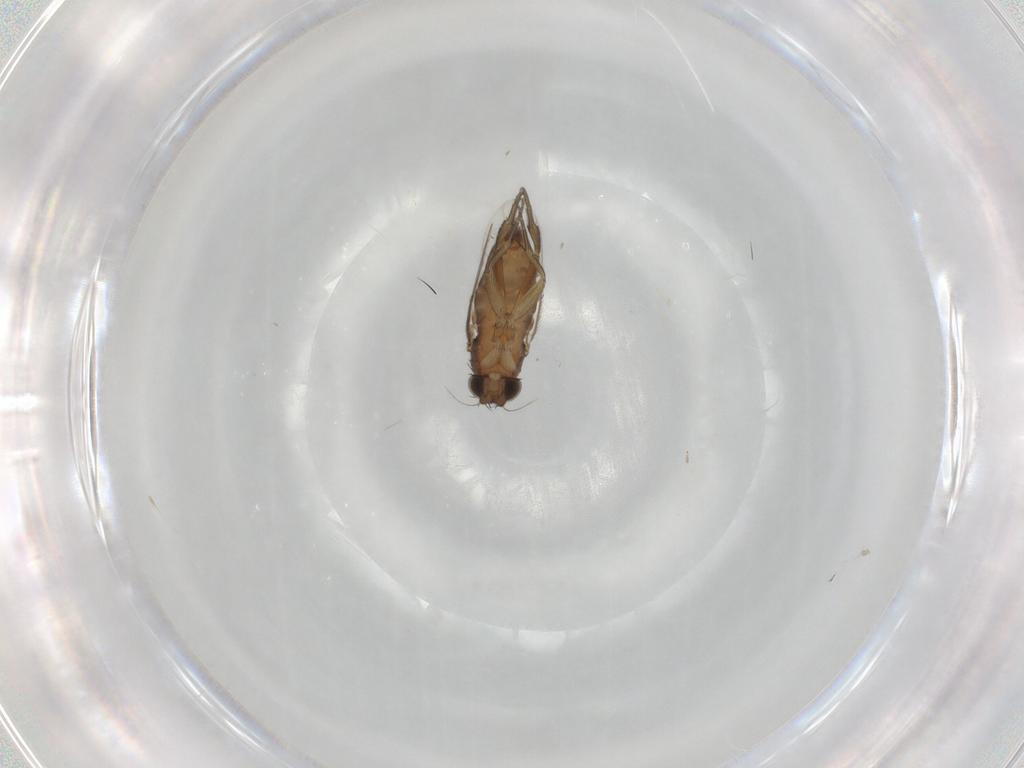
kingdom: Animalia
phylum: Arthropoda
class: Insecta
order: Diptera
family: Phoridae
